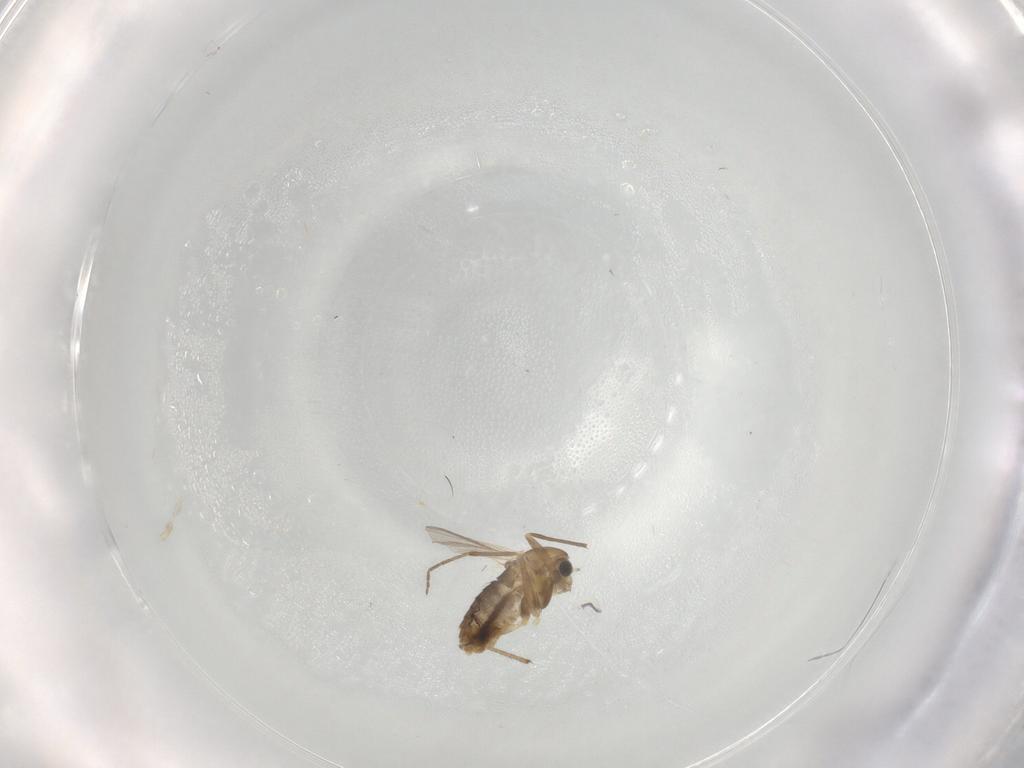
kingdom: Animalia
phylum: Arthropoda
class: Insecta
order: Diptera
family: Chironomidae
